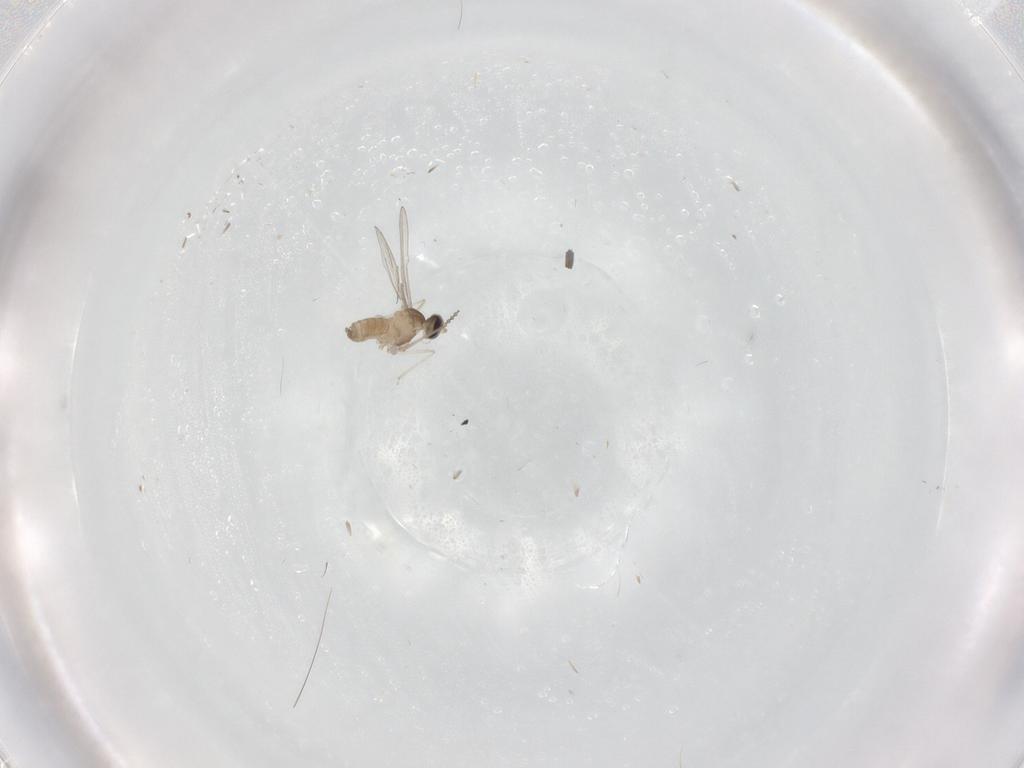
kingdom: Animalia
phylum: Arthropoda
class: Insecta
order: Diptera
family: Cecidomyiidae
